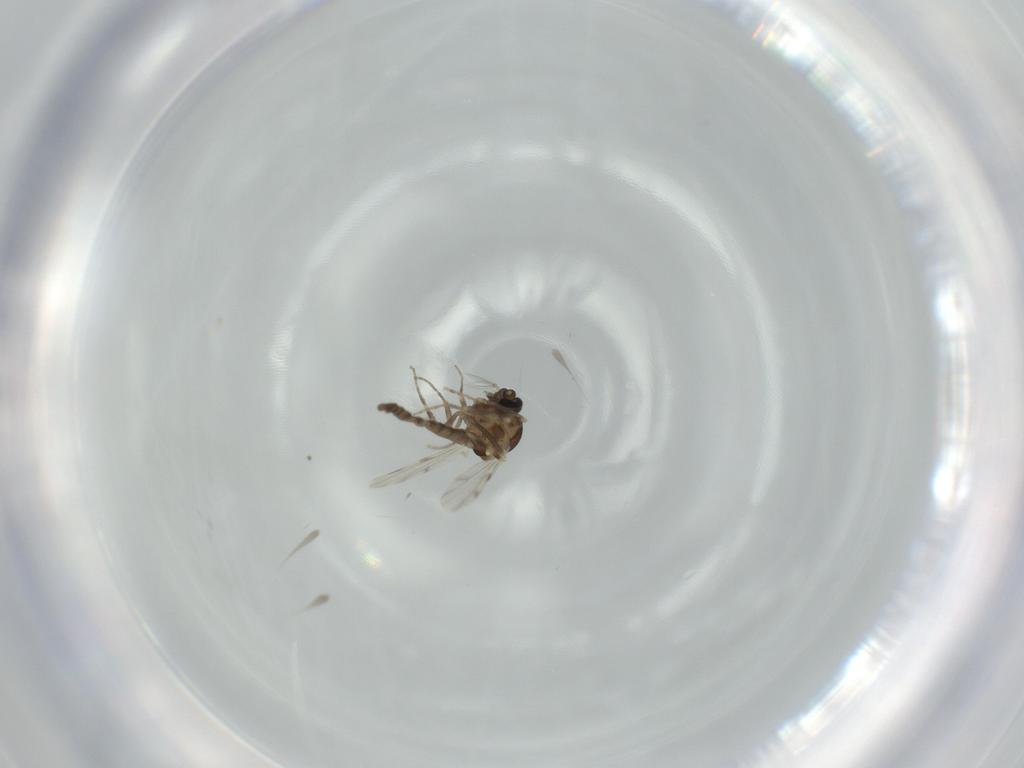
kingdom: Animalia
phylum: Arthropoda
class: Insecta
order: Diptera
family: Ceratopogonidae
